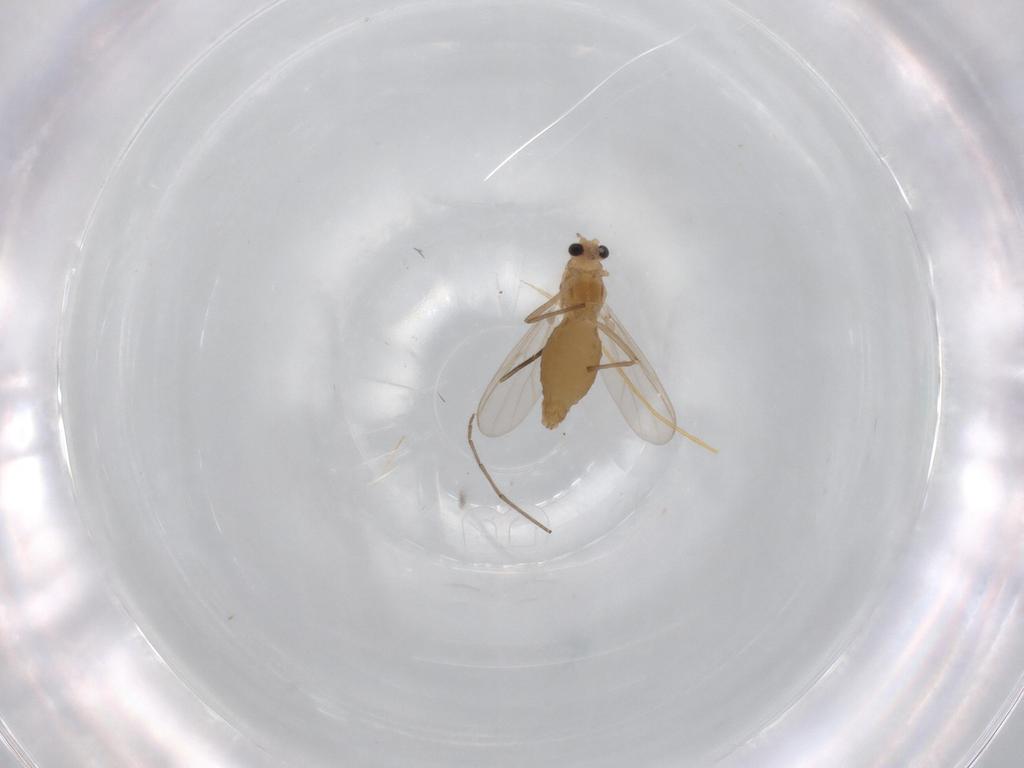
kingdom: Animalia
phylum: Arthropoda
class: Insecta
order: Diptera
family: Chironomidae
